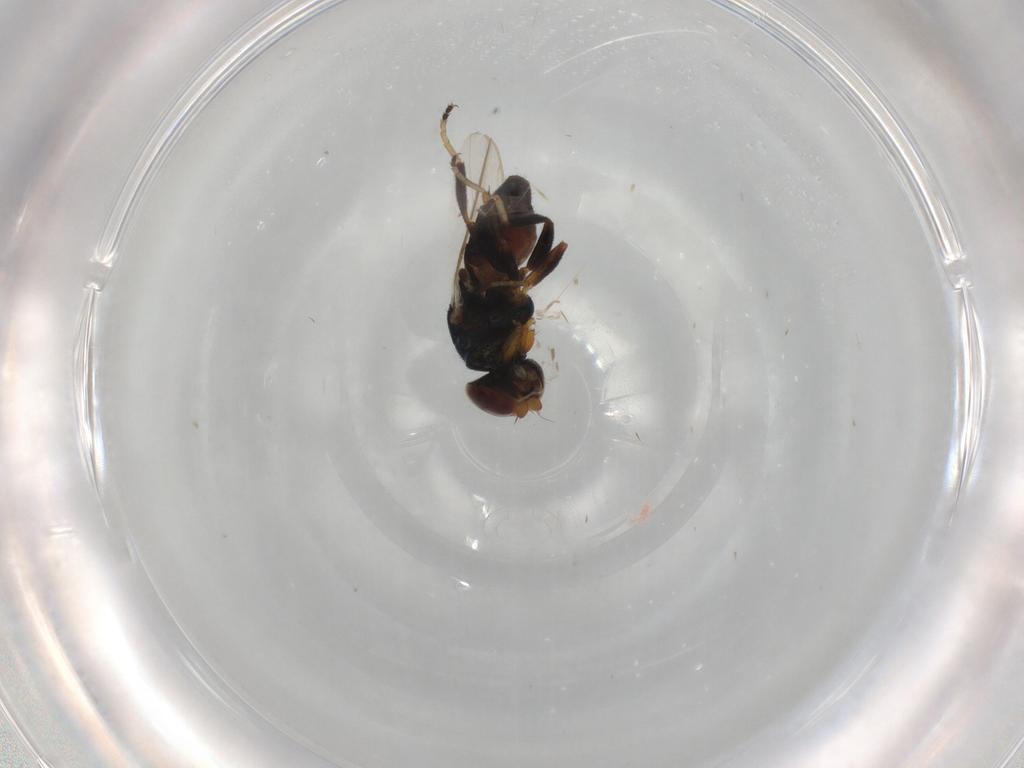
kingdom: Animalia
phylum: Arthropoda
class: Insecta
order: Diptera
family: Chloropidae
